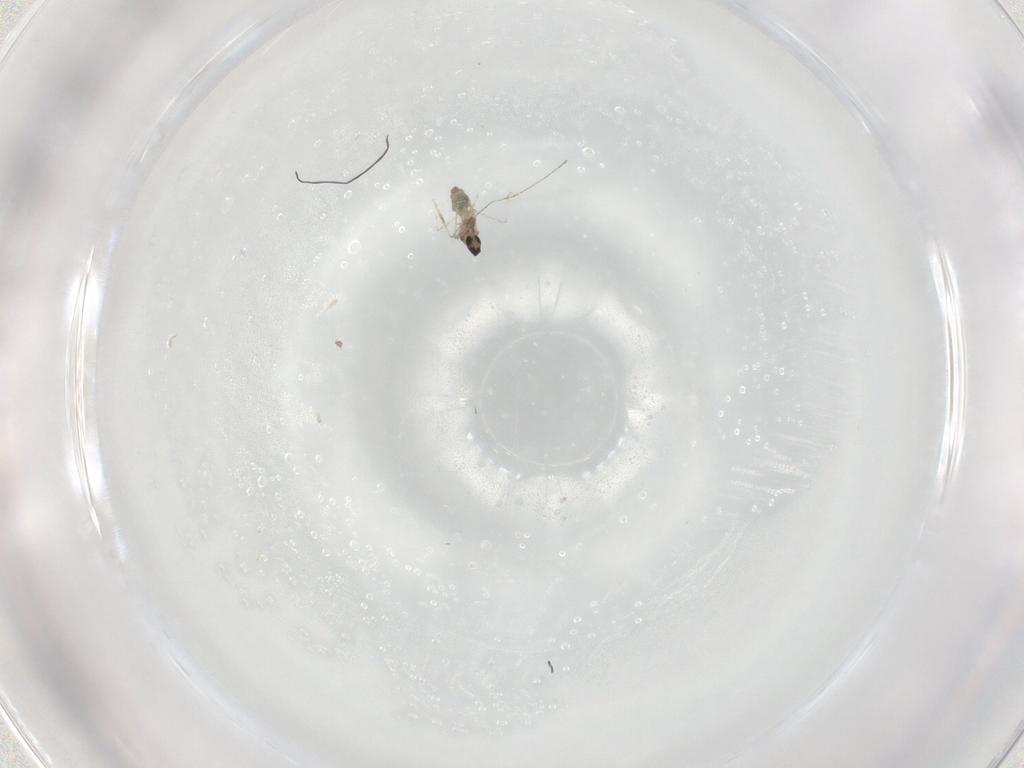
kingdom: Animalia
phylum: Arthropoda
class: Insecta
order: Diptera
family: Cecidomyiidae
